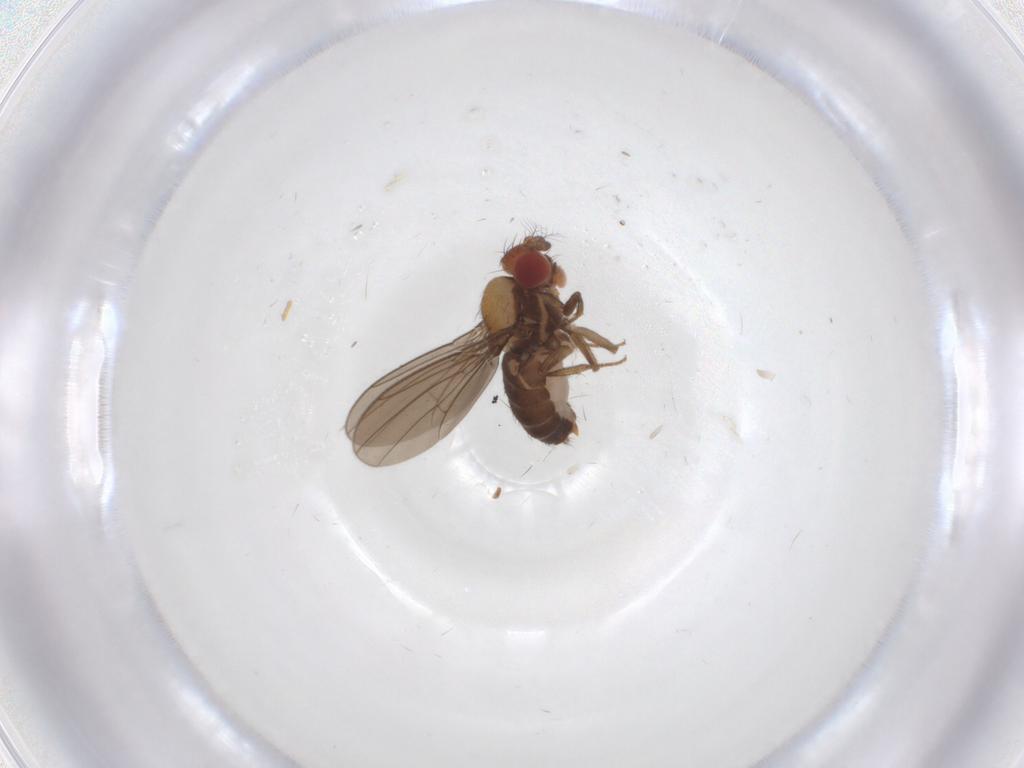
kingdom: Animalia
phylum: Arthropoda
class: Insecta
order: Diptera
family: Drosophilidae
